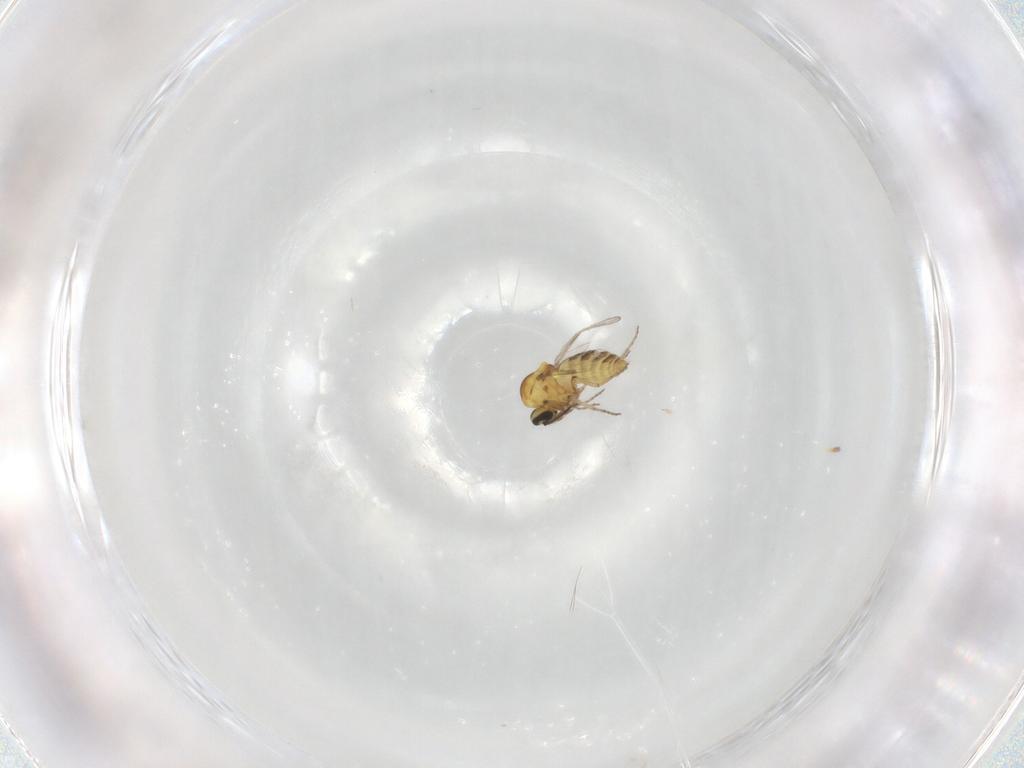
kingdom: Animalia
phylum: Arthropoda
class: Insecta
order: Diptera
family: Ceratopogonidae
